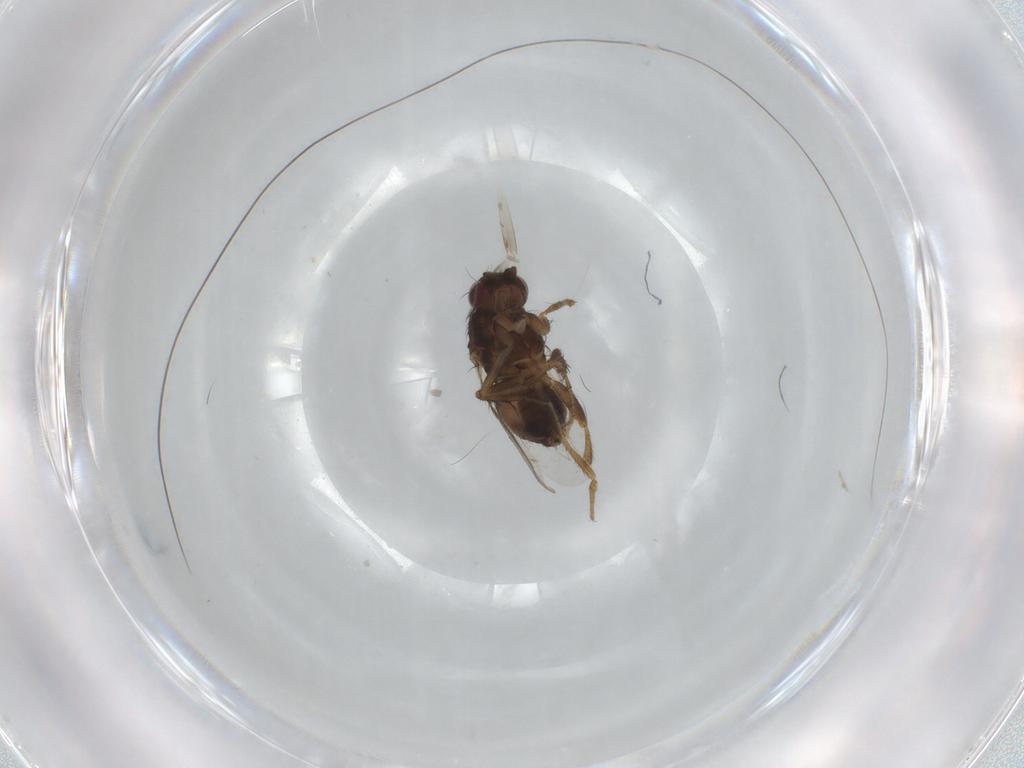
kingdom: Animalia
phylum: Arthropoda
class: Insecta
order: Diptera
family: Sphaeroceridae
